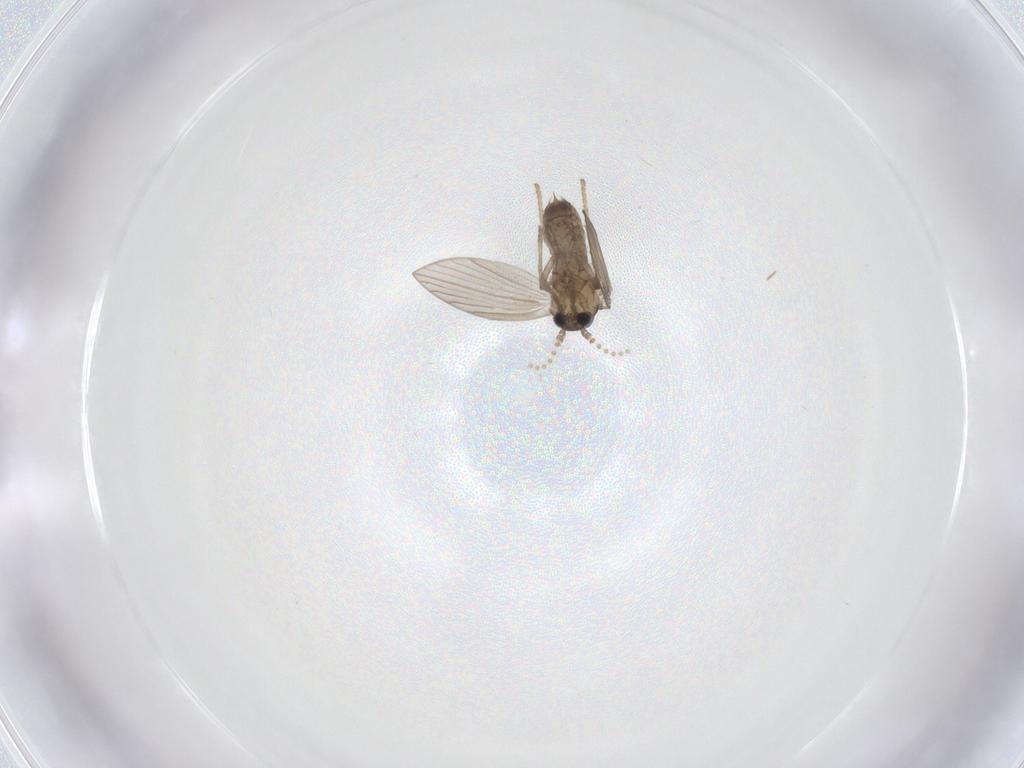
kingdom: Animalia
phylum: Arthropoda
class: Insecta
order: Diptera
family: Psychodidae
